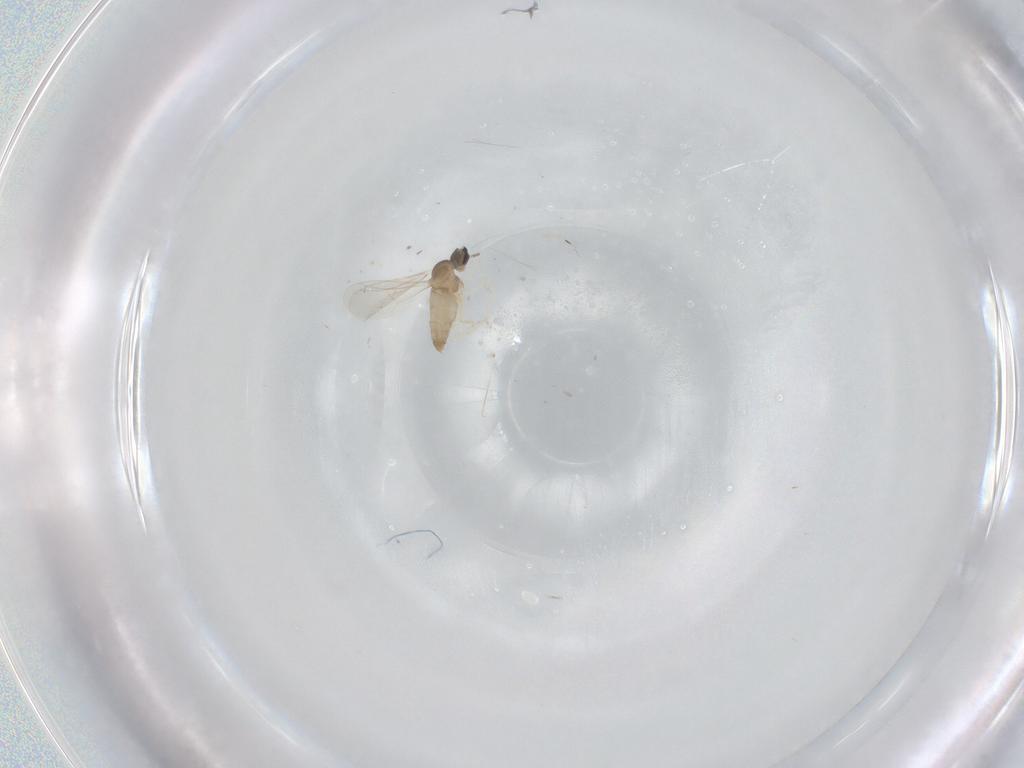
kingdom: Animalia
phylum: Arthropoda
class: Insecta
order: Diptera
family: Cecidomyiidae
